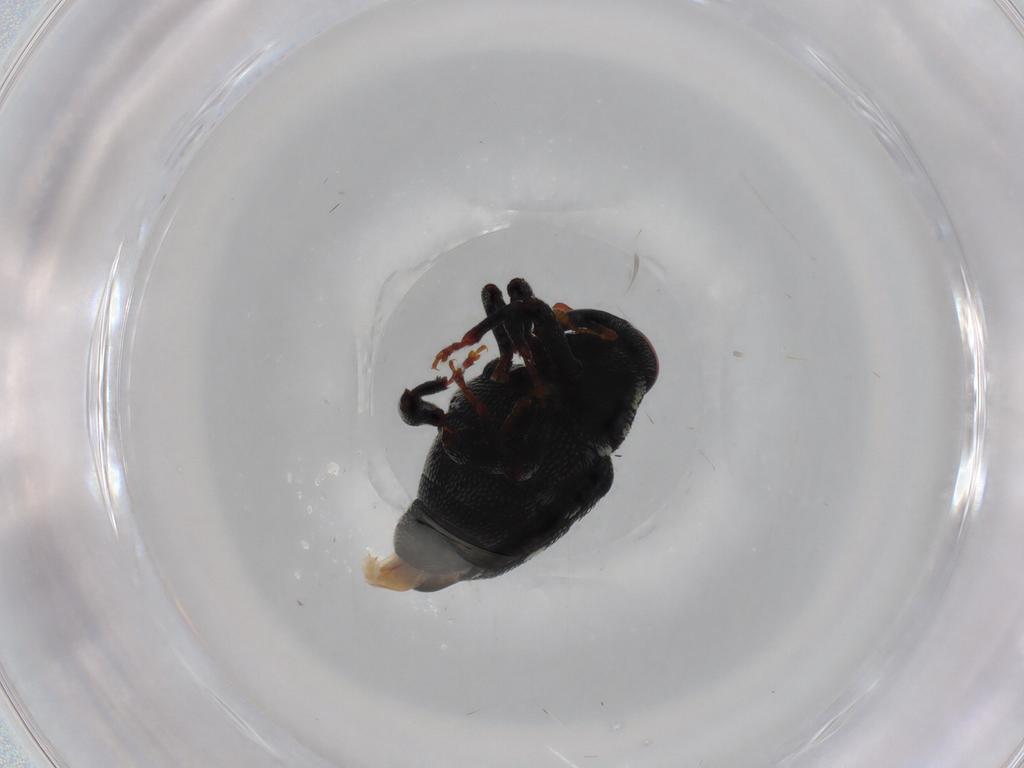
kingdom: Animalia
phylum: Arthropoda
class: Insecta
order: Coleoptera
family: Curculionidae
